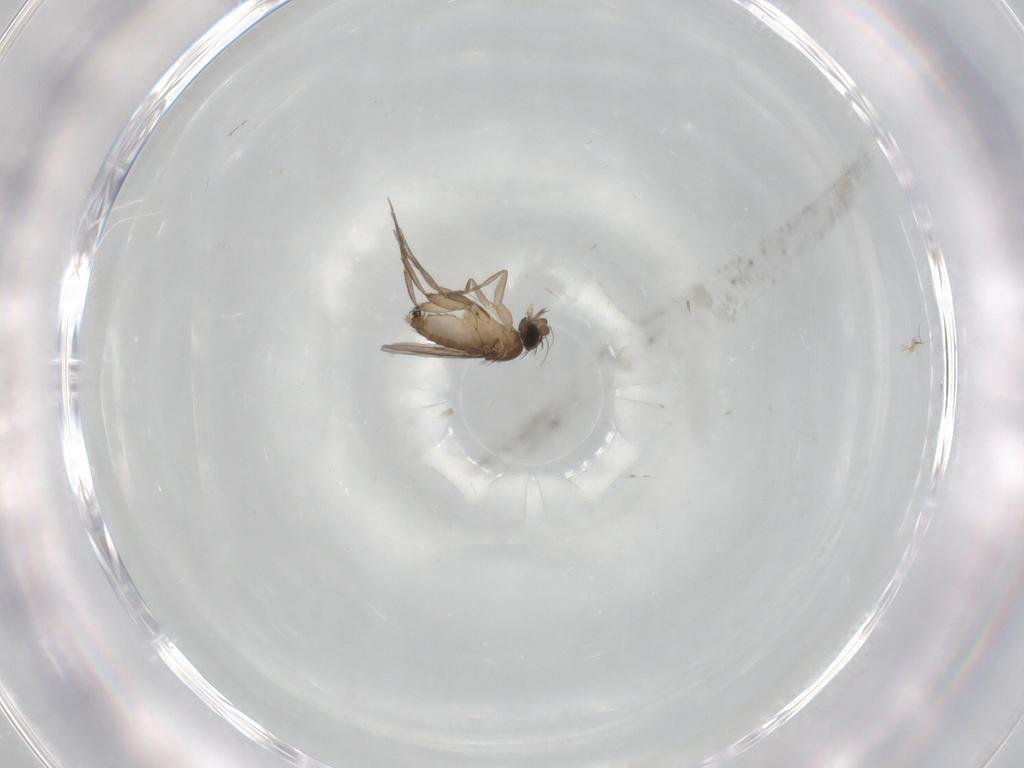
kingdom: Animalia
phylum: Arthropoda
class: Insecta
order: Diptera
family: Phoridae
